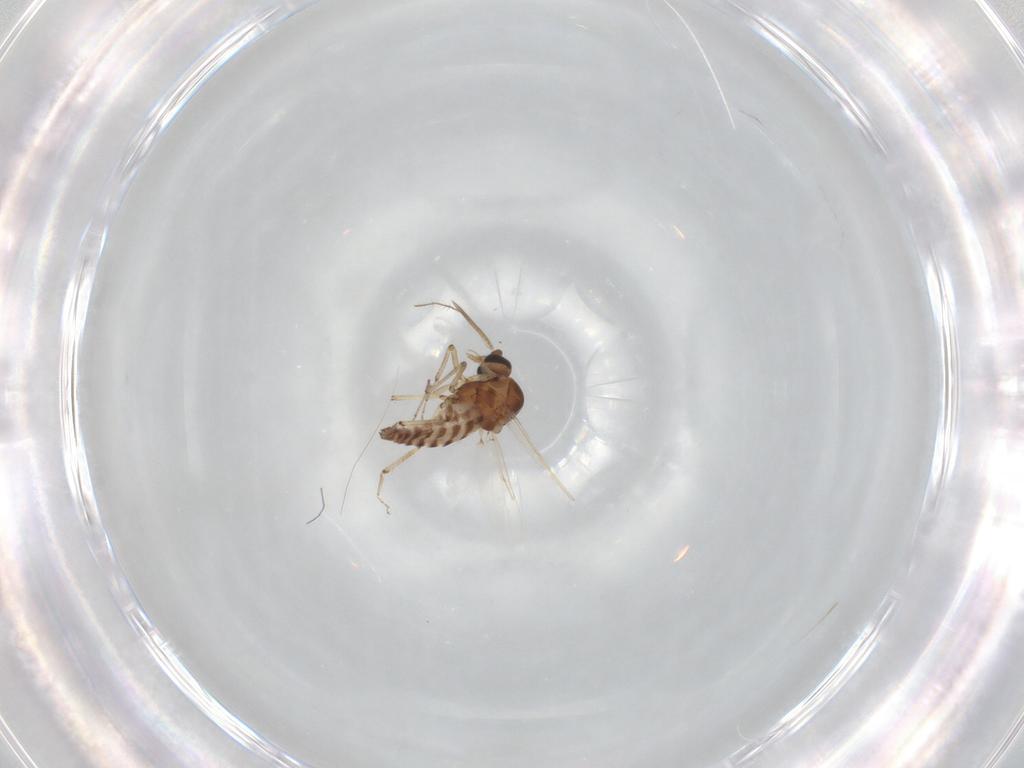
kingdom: Animalia
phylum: Arthropoda
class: Insecta
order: Diptera
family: Ceratopogonidae
